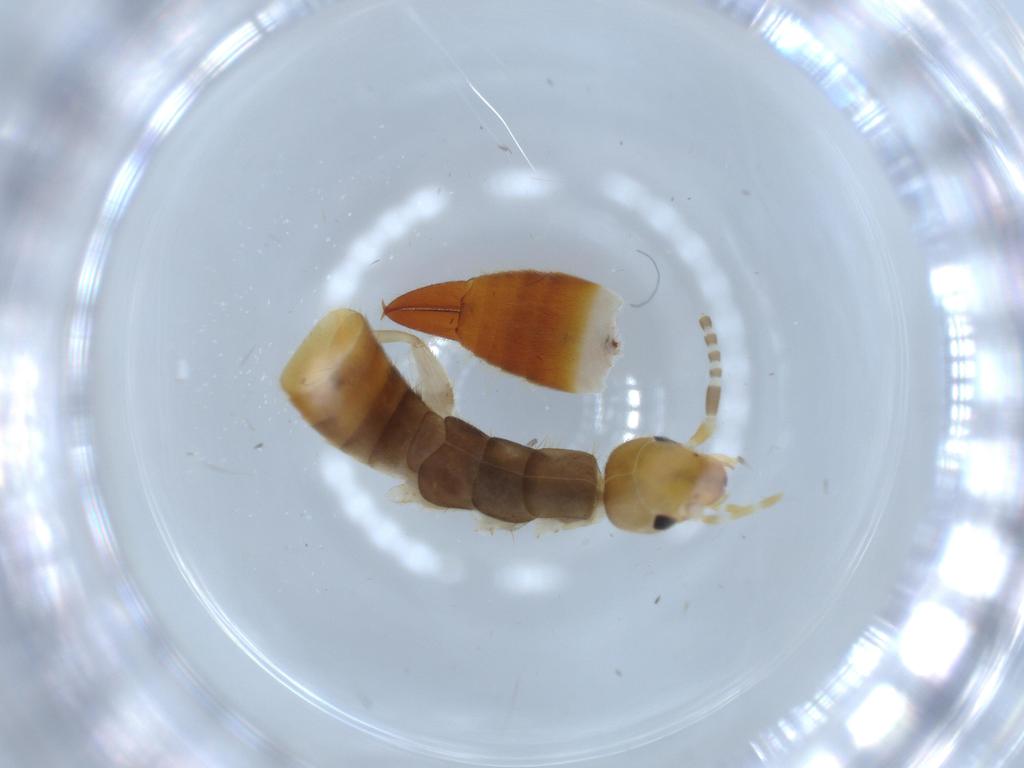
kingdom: Animalia
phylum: Arthropoda
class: Insecta
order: Dermaptera
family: Forficulidae
